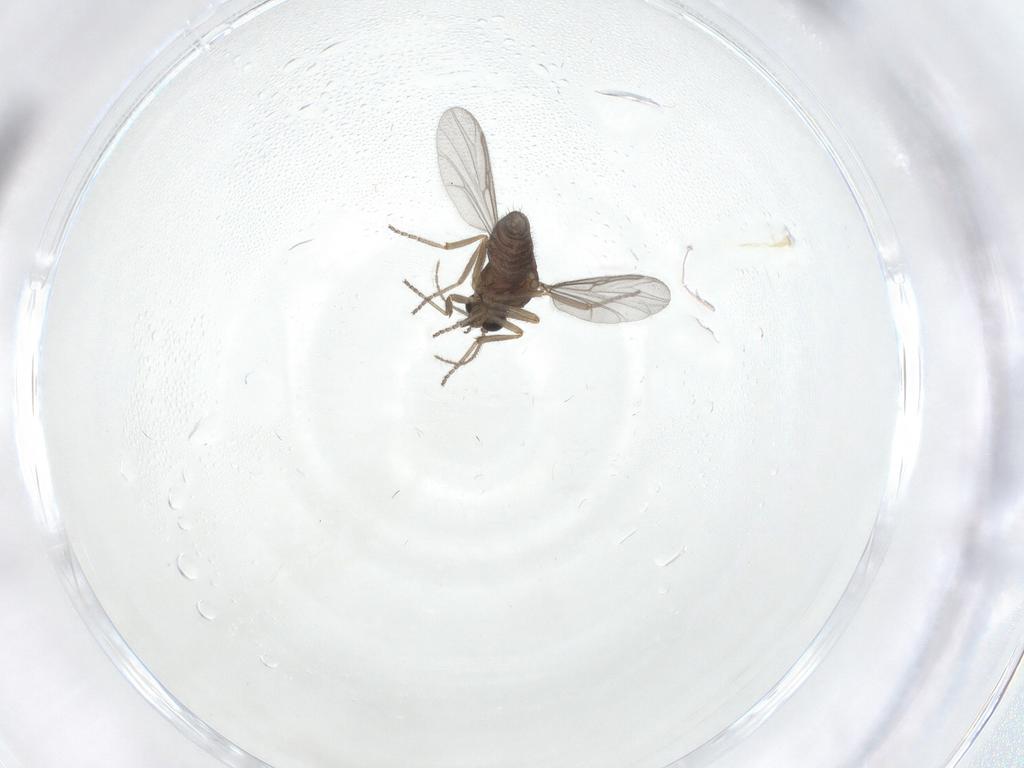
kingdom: Animalia
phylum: Arthropoda
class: Insecta
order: Diptera
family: Ceratopogonidae
